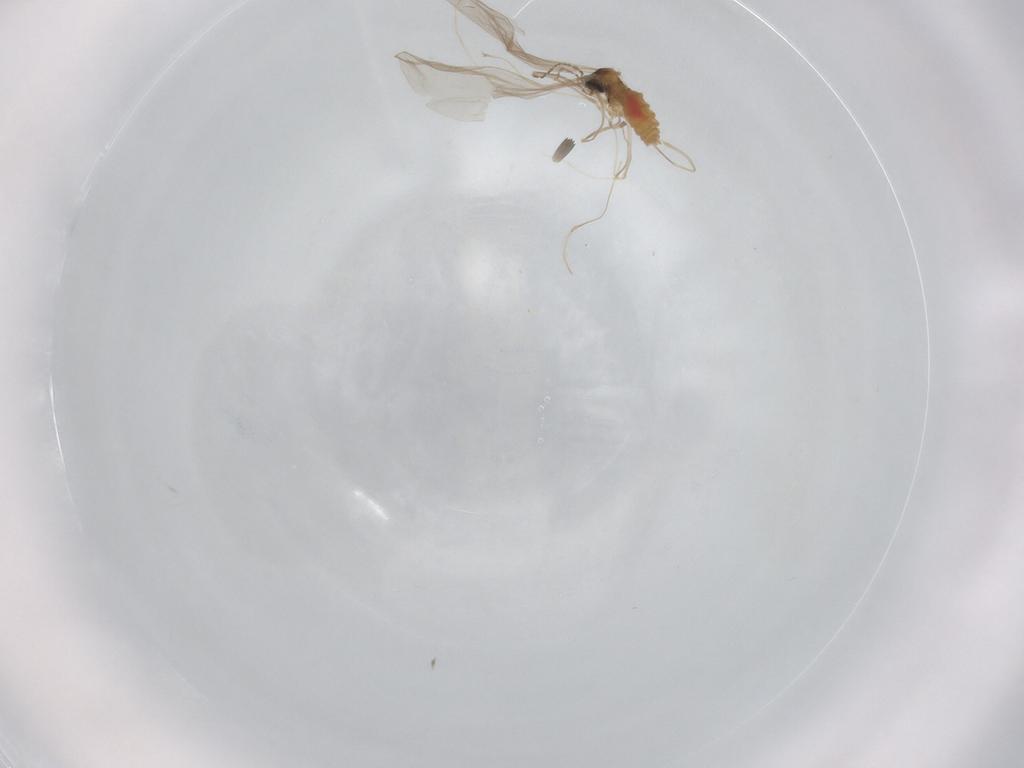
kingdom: Animalia
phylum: Arthropoda
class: Insecta
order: Diptera
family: Cecidomyiidae
